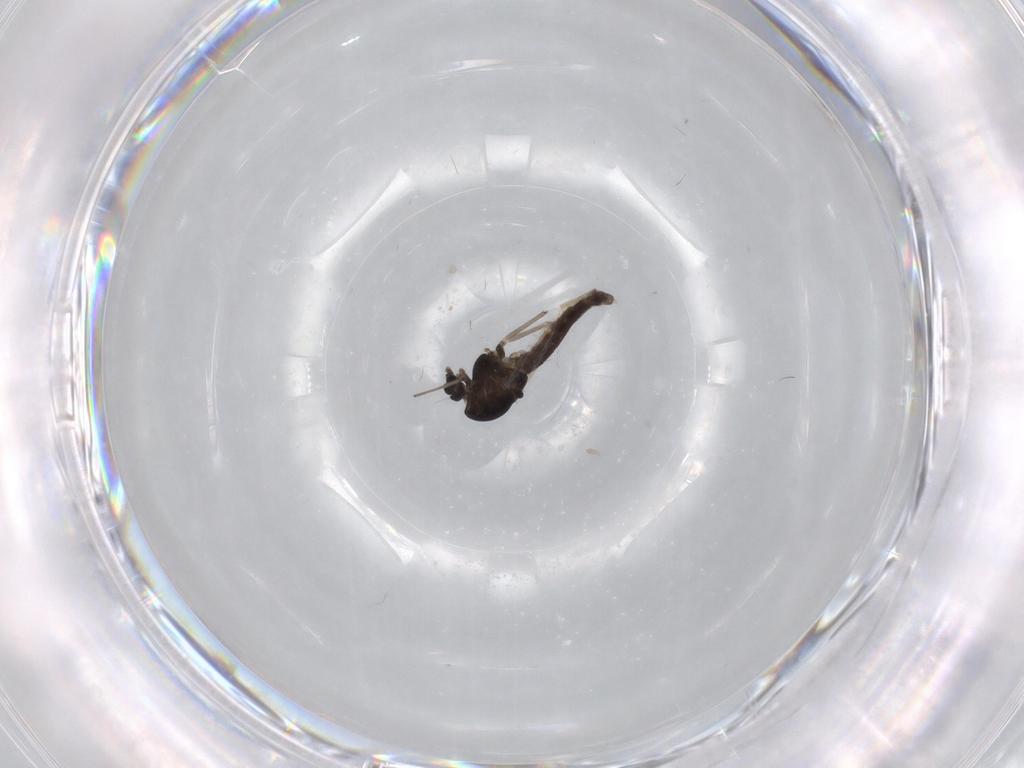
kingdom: Animalia
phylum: Arthropoda
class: Insecta
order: Diptera
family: Chironomidae
